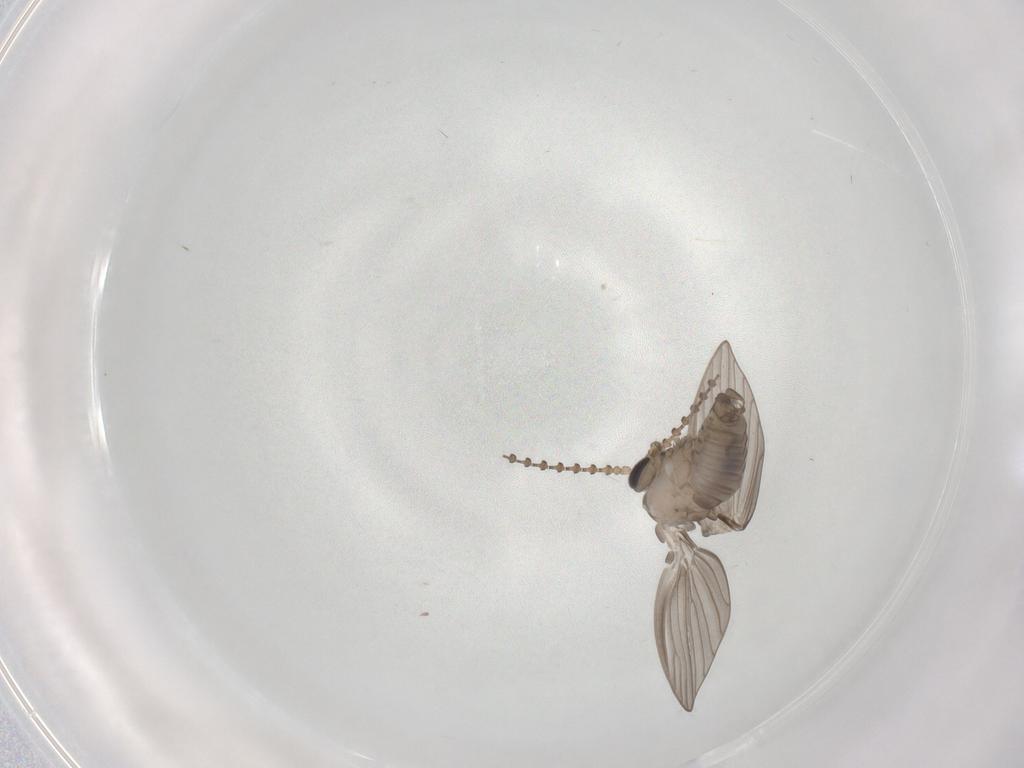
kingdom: Animalia
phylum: Arthropoda
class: Insecta
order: Diptera
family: Psychodidae
